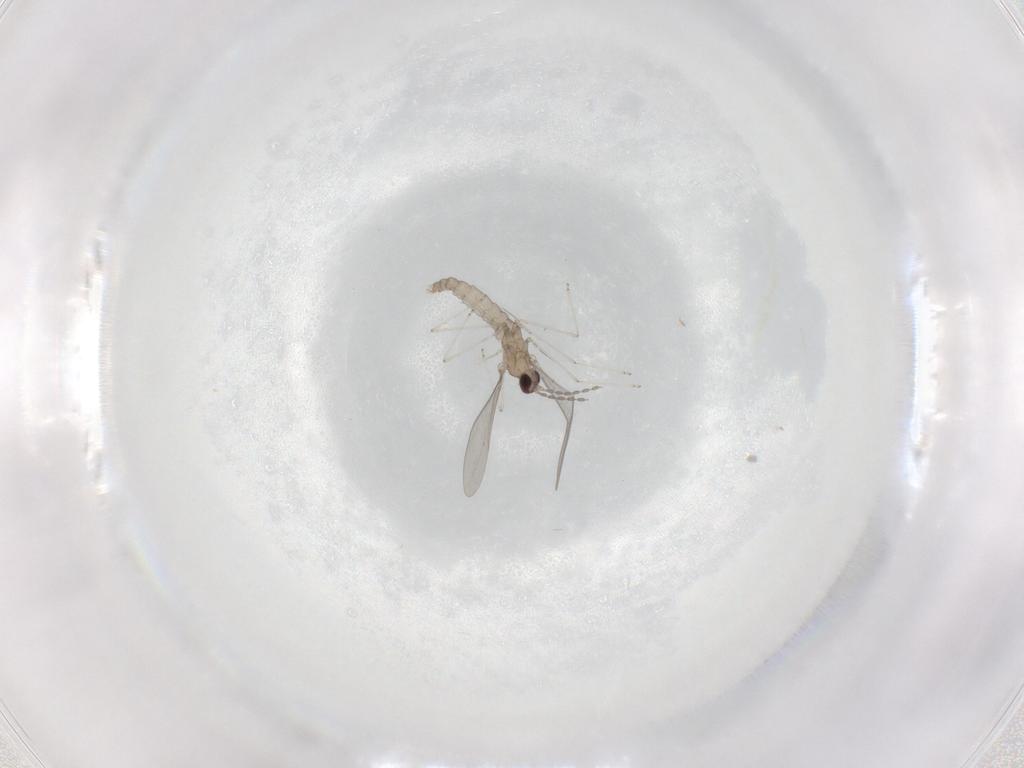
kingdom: Animalia
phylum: Arthropoda
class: Insecta
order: Diptera
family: Cecidomyiidae
